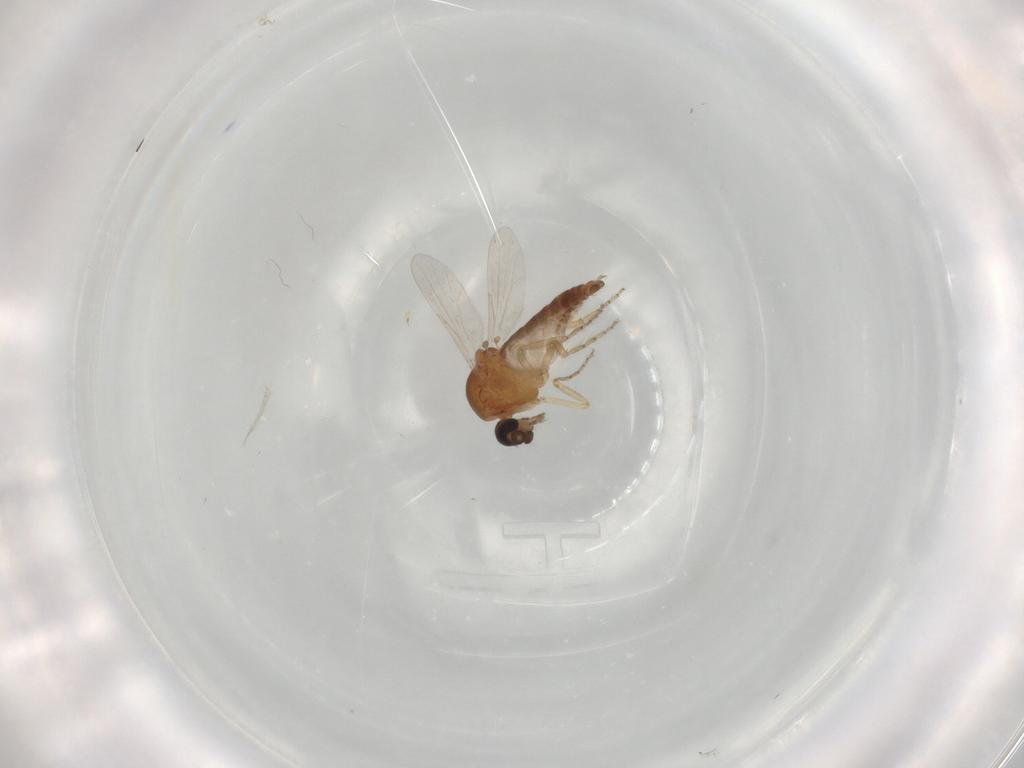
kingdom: Animalia
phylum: Arthropoda
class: Insecta
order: Diptera
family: Ceratopogonidae
